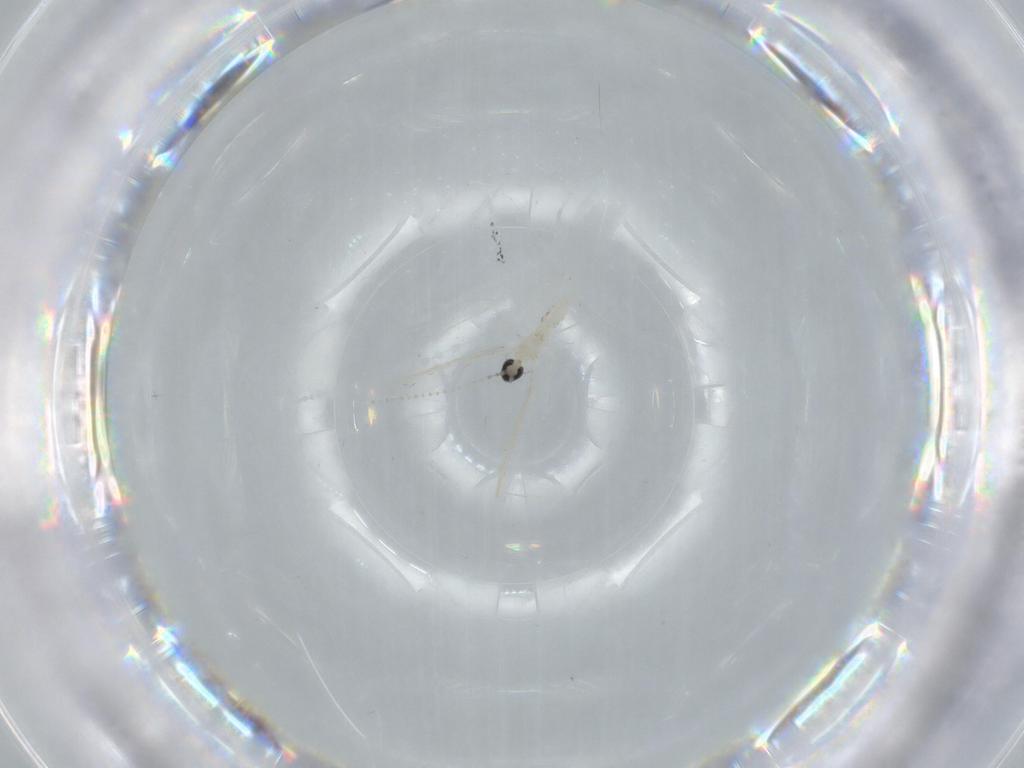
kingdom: Animalia
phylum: Arthropoda
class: Insecta
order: Diptera
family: Cecidomyiidae
